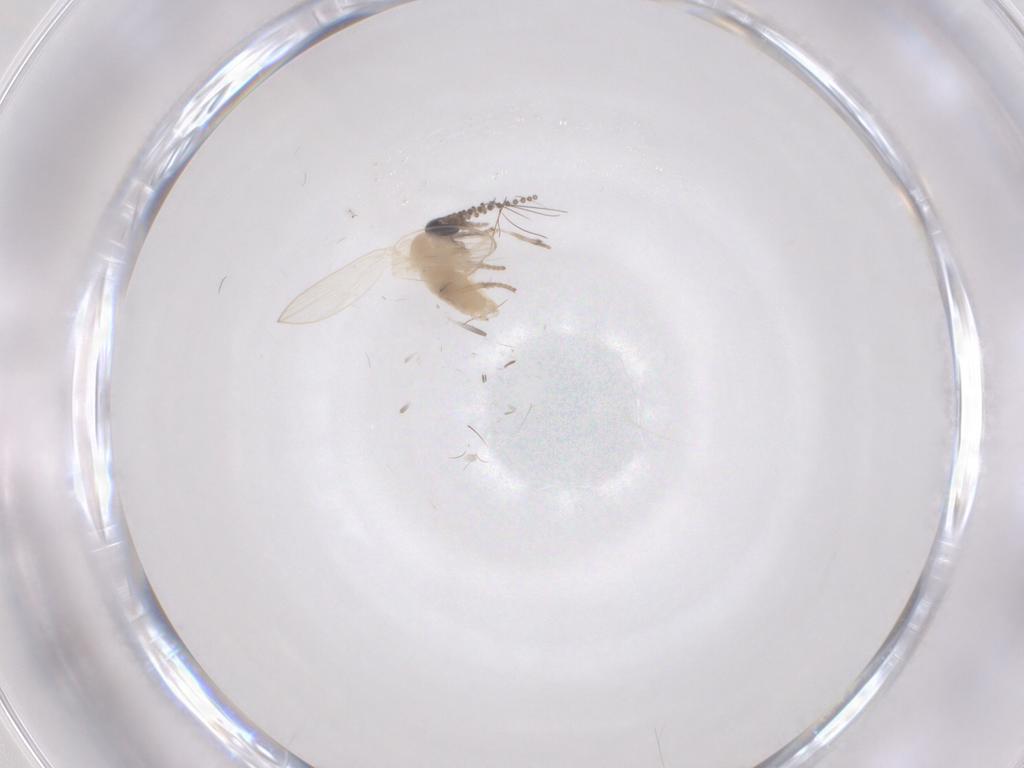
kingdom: Animalia
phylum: Arthropoda
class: Insecta
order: Diptera
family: Psychodidae
